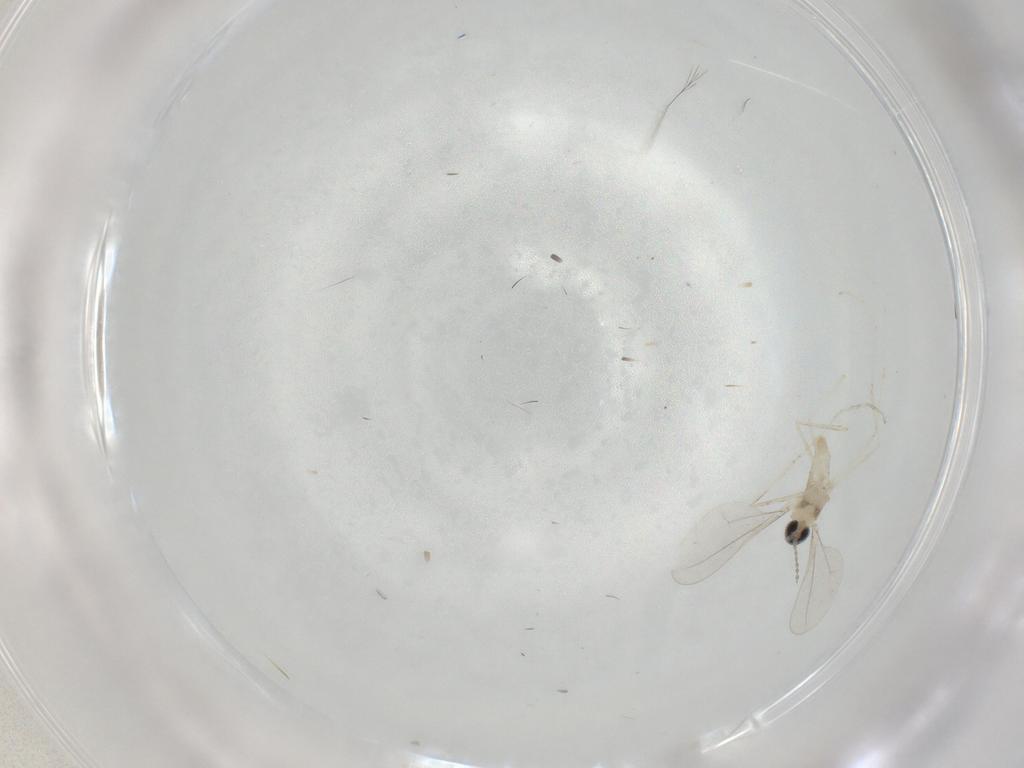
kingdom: Animalia
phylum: Arthropoda
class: Insecta
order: Diptera
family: Cecidomyiidae
